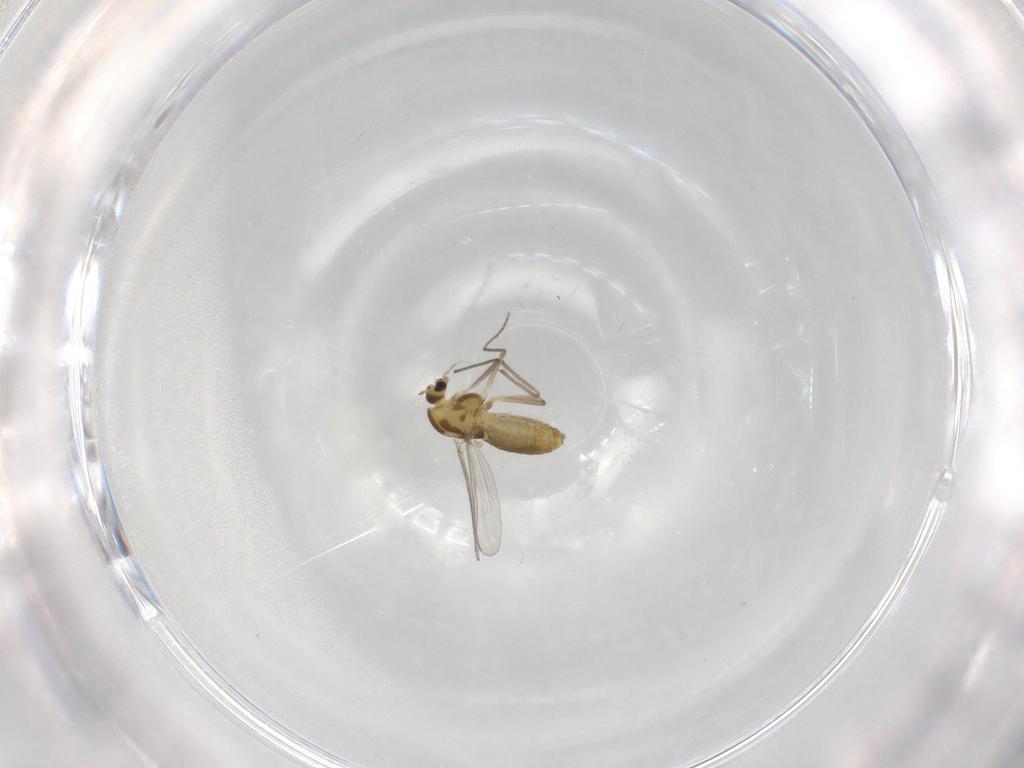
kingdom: Animalia
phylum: Arthropoda
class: Insecta
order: Diptera
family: Chironomidae
